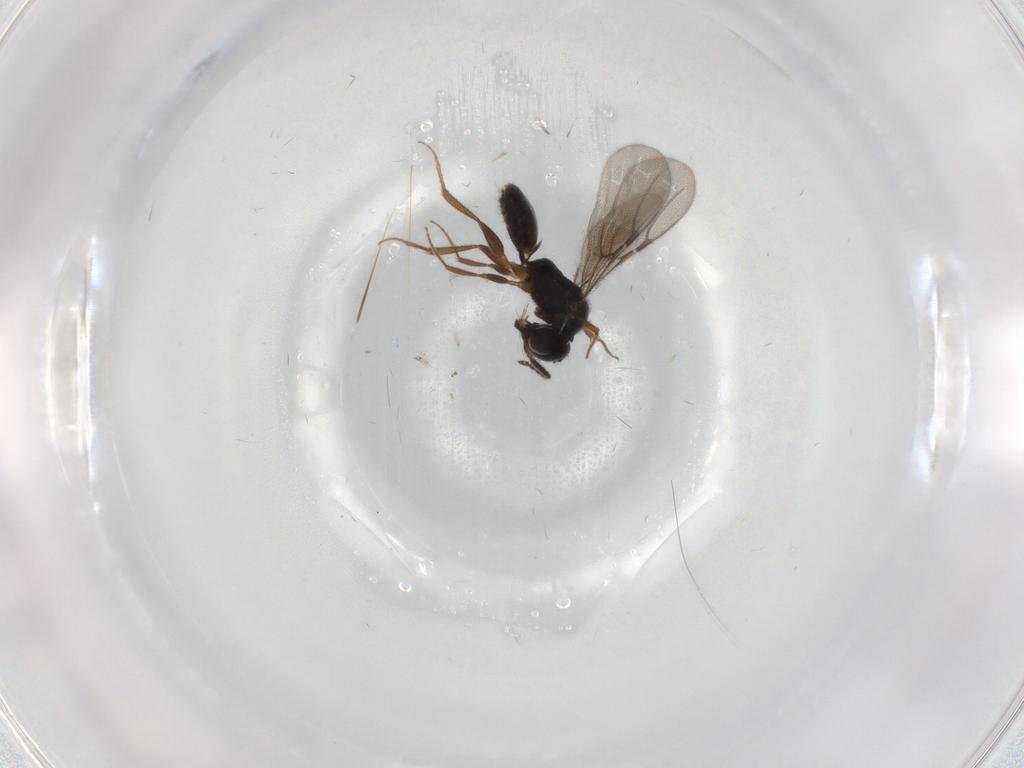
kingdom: Animalia
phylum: Arthropoda
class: Insecta
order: Hymenoptera
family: Bethylidae
